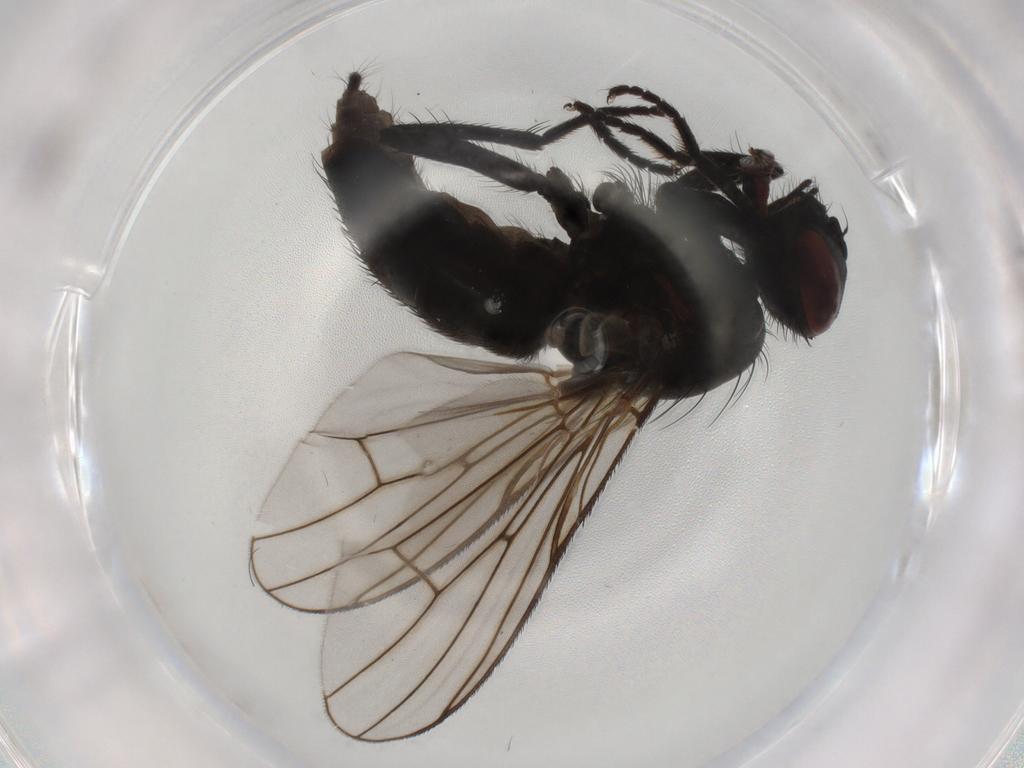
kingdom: Animalia
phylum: Arthropoda
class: Insecta
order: Diptera
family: Muscidae
